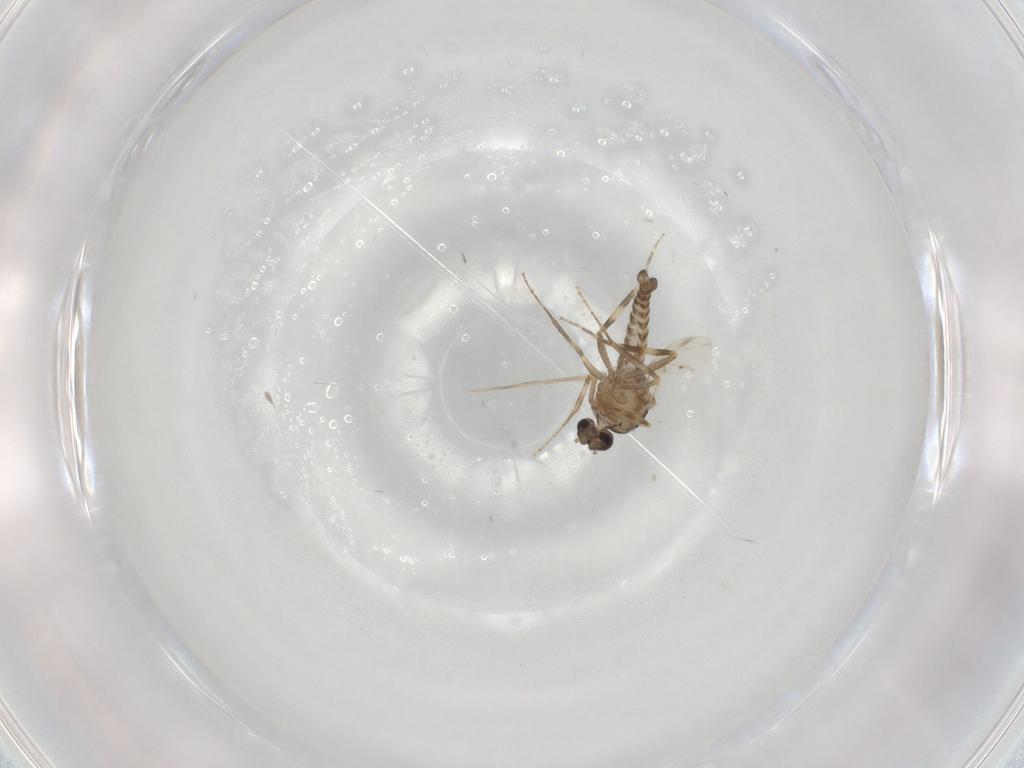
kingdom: Animalia
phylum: Arthropoda
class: Insecta
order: Diptera
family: Ceratopogonidae
